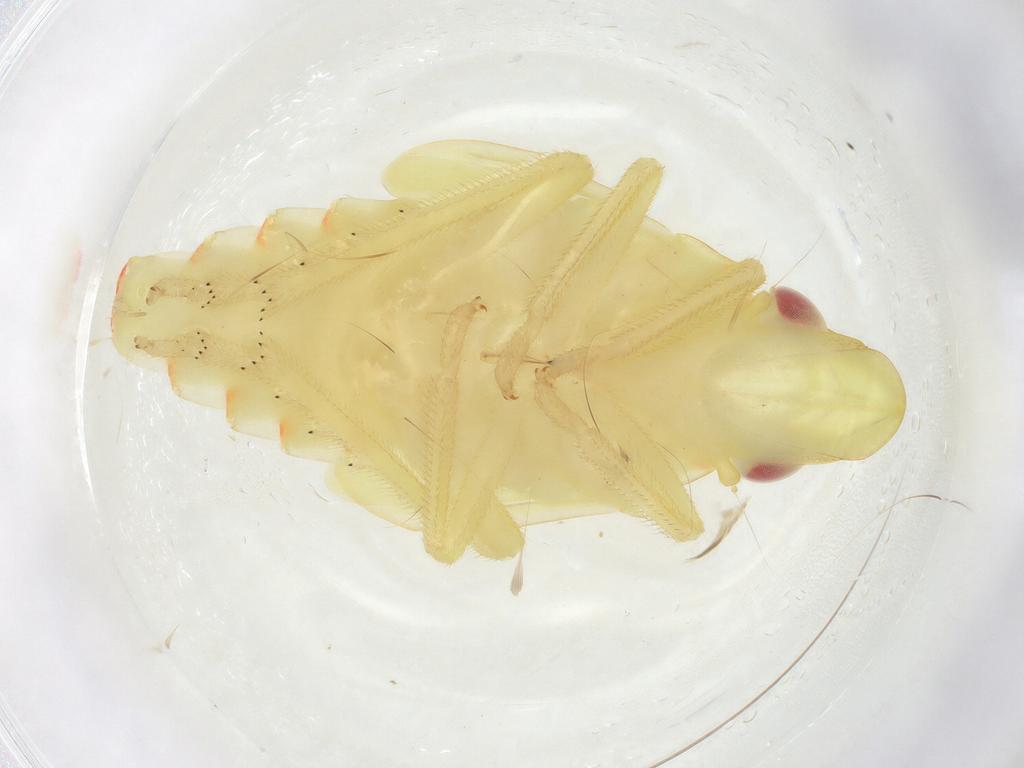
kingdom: Animalia
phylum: Arthropoda
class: Insecta
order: Hemiptera
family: Tropiduchidae
